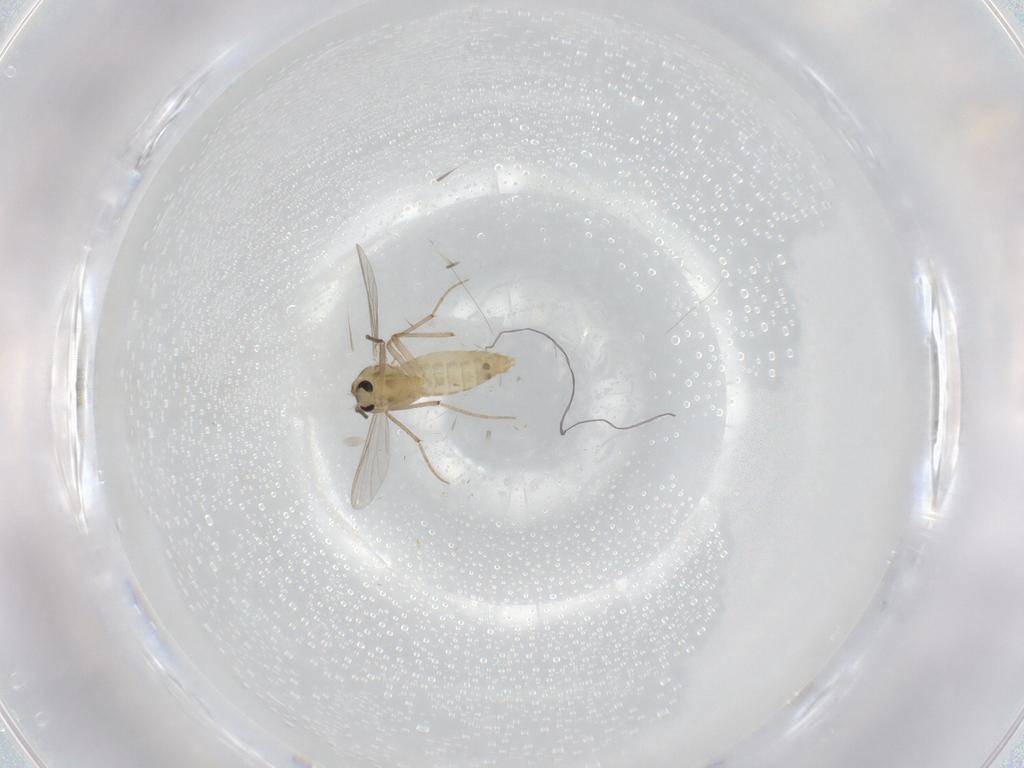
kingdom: Animalia
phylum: Arthropoda
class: Insecta
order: Diptera
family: Chironomidae
